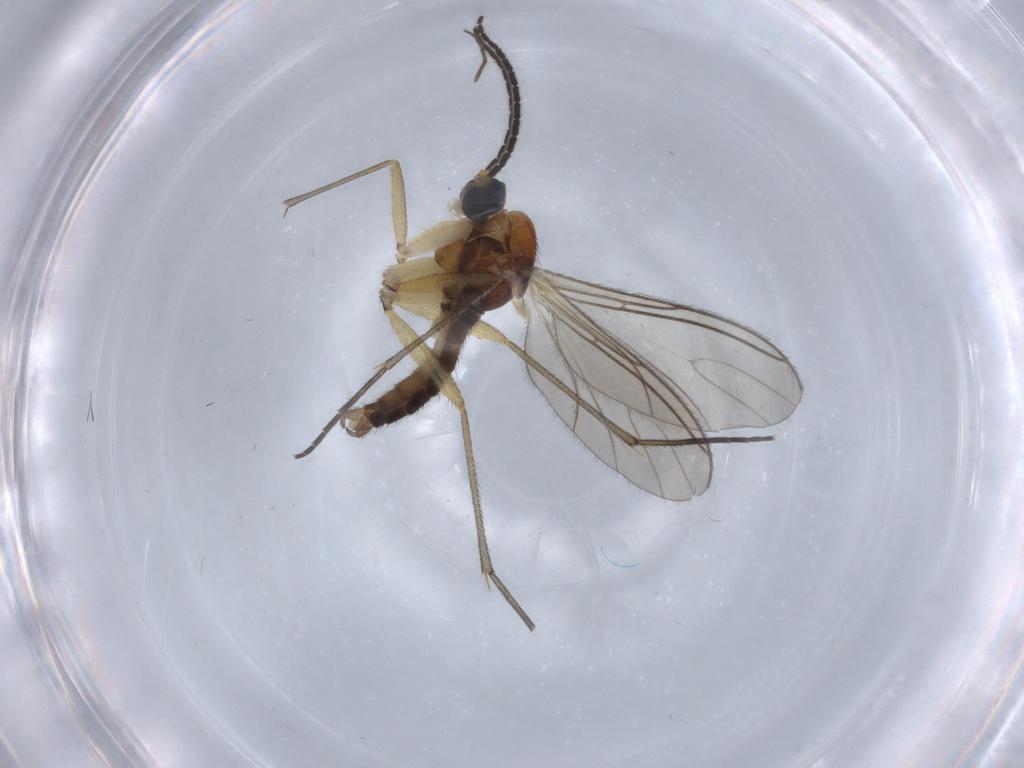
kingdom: Animalia
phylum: Arthropoda
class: Insecta
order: Diptera
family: Sciaridae
